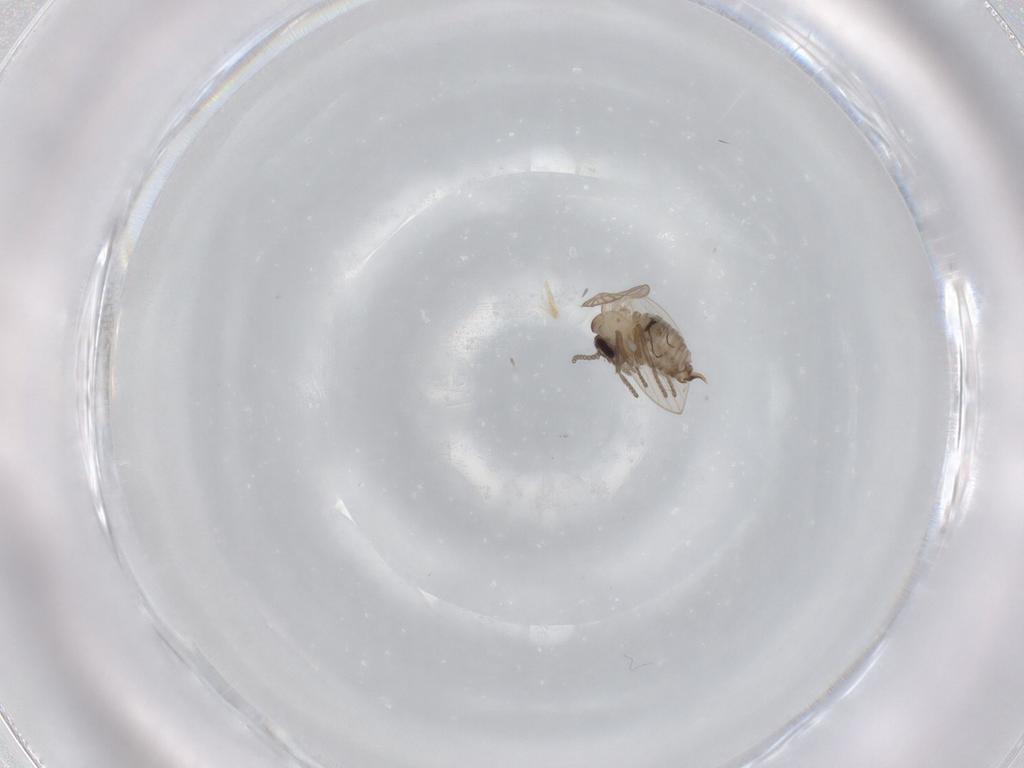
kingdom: Animalia
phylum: Arthropoda
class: Insecta
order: Diptera
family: Psychodidae
